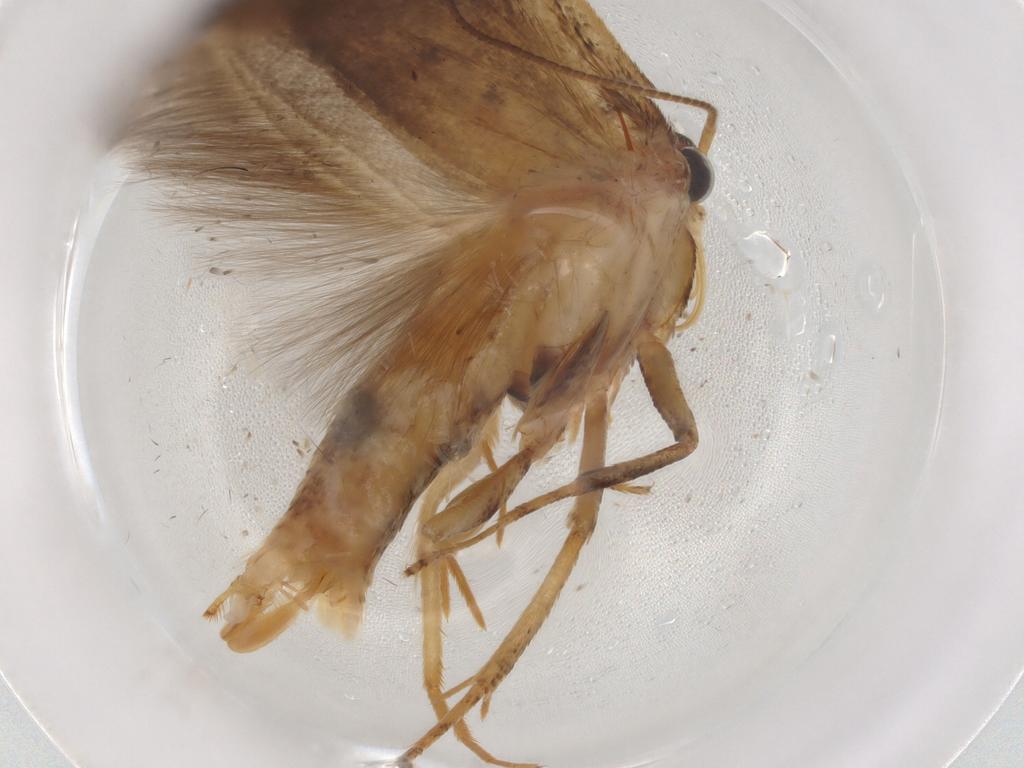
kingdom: Animalia
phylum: Arthropoda
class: Insecta
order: Lepidoptera
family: Gelechiidae
